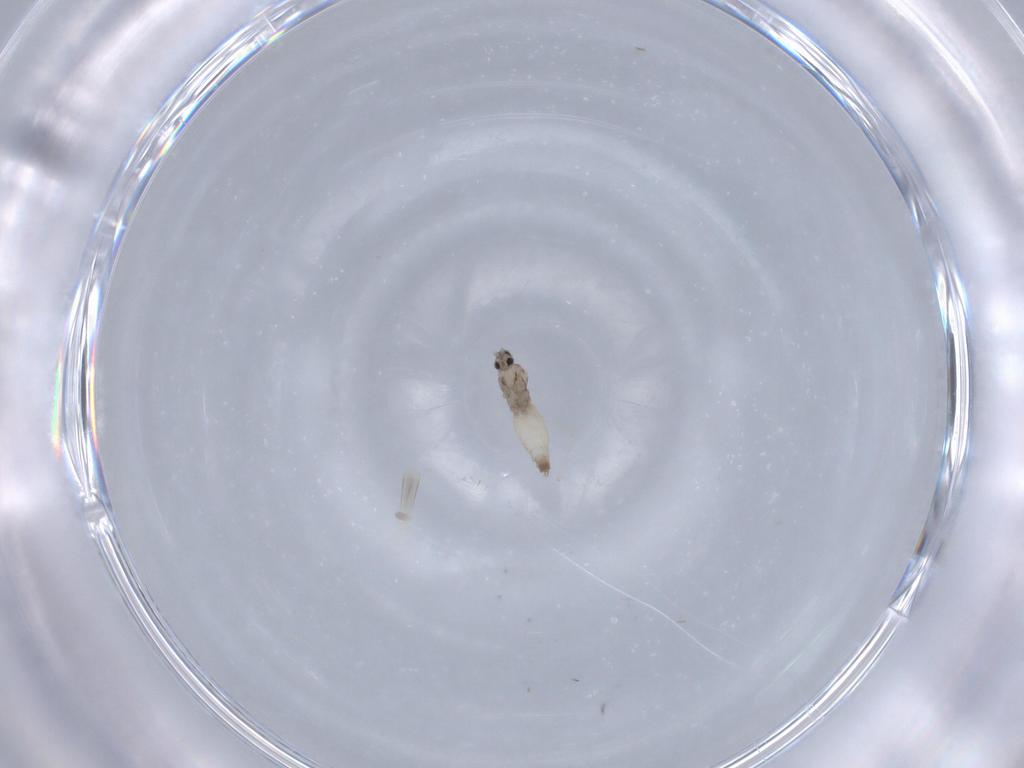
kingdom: Animalia
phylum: Arthropoda
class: Insecta
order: Diptera
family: Cecidomyiidae
